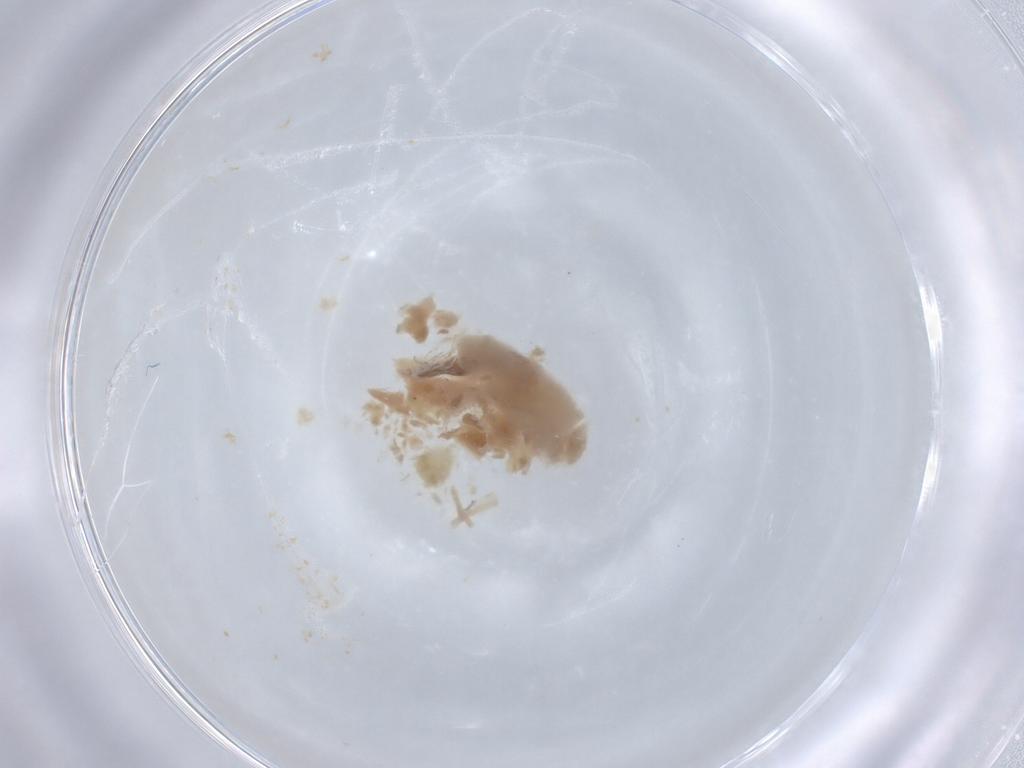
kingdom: Animalia
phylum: Arthropoda
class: Insecta
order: Diptera
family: Chironomidae
